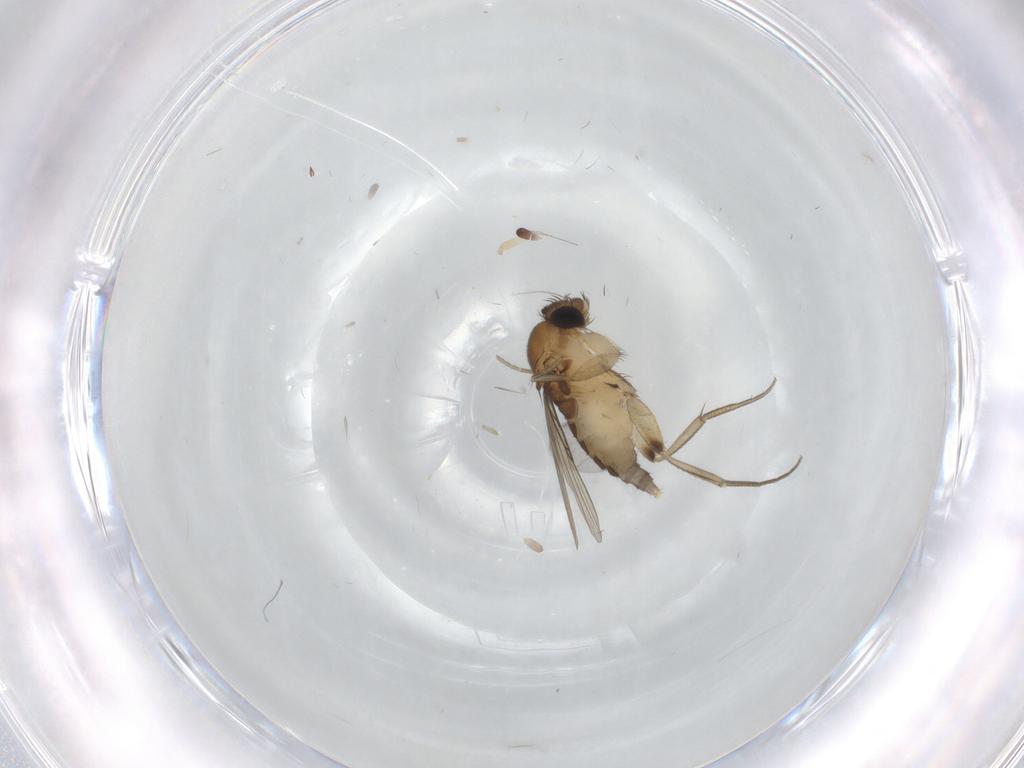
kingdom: Animalia
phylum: Arthropoda
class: Insecta
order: Diptera
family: Phoridae
